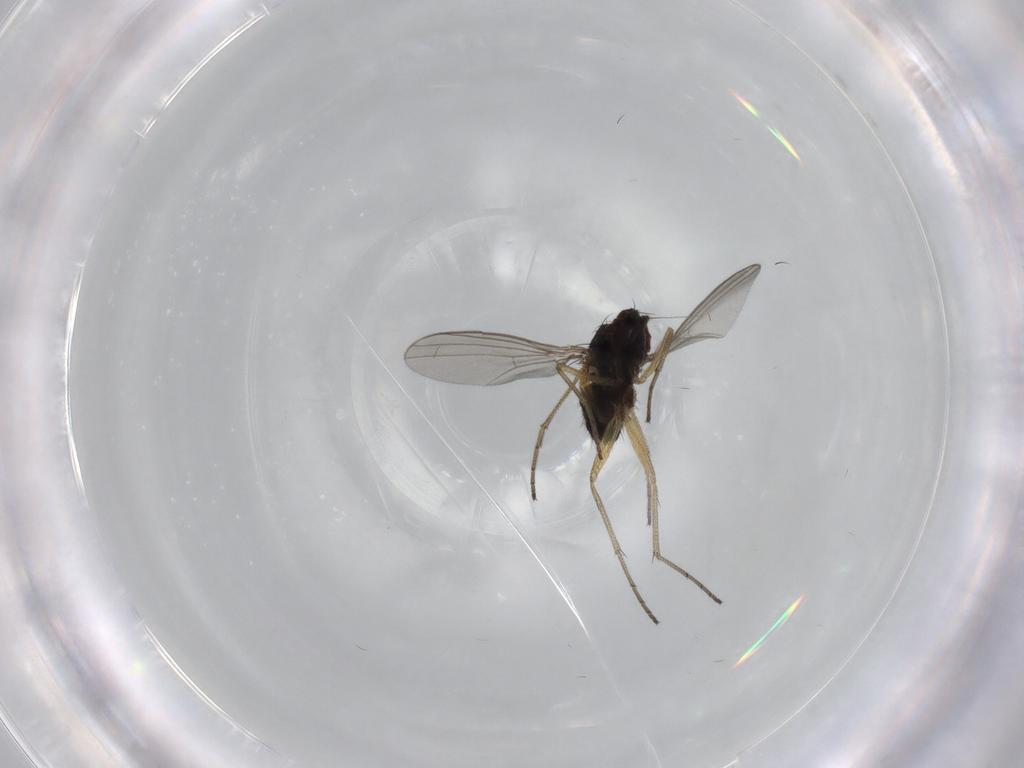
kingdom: Animalia
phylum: Arthropoda
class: Insecta
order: Diptera
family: Dolichopodidae
